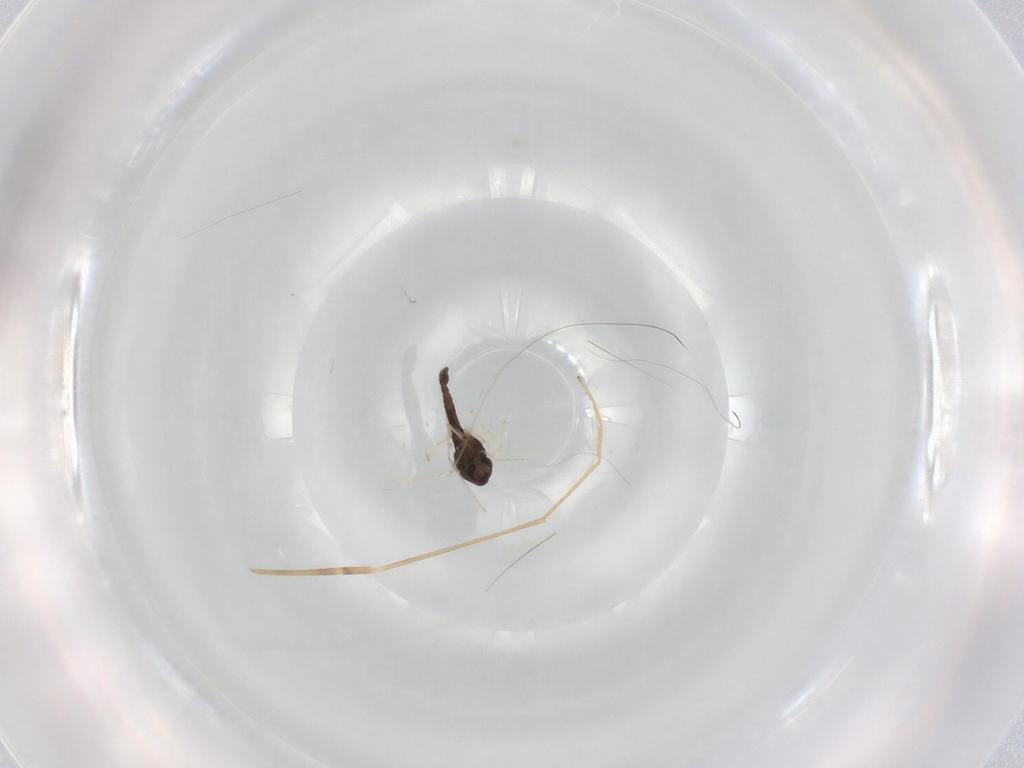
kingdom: Animalia
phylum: Arthropoda
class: Insecta
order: Diptera
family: Chironomidae
